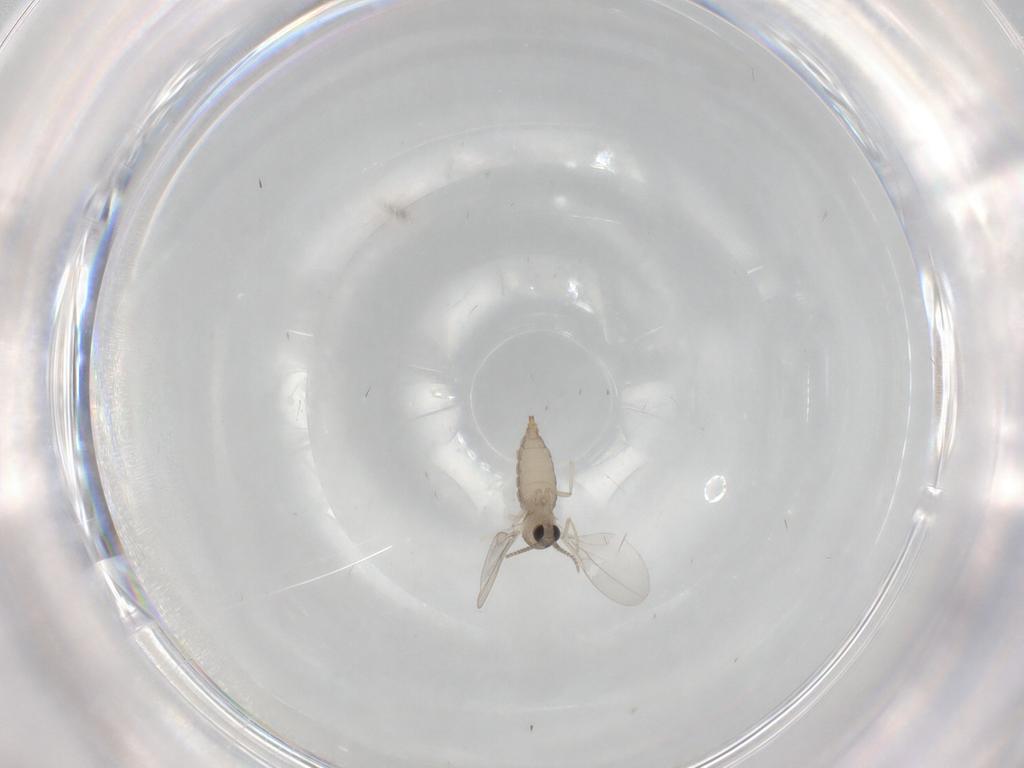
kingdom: Animalia
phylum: Arthropoda
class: Insecta
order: Diptera
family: Cecidomyiidae
